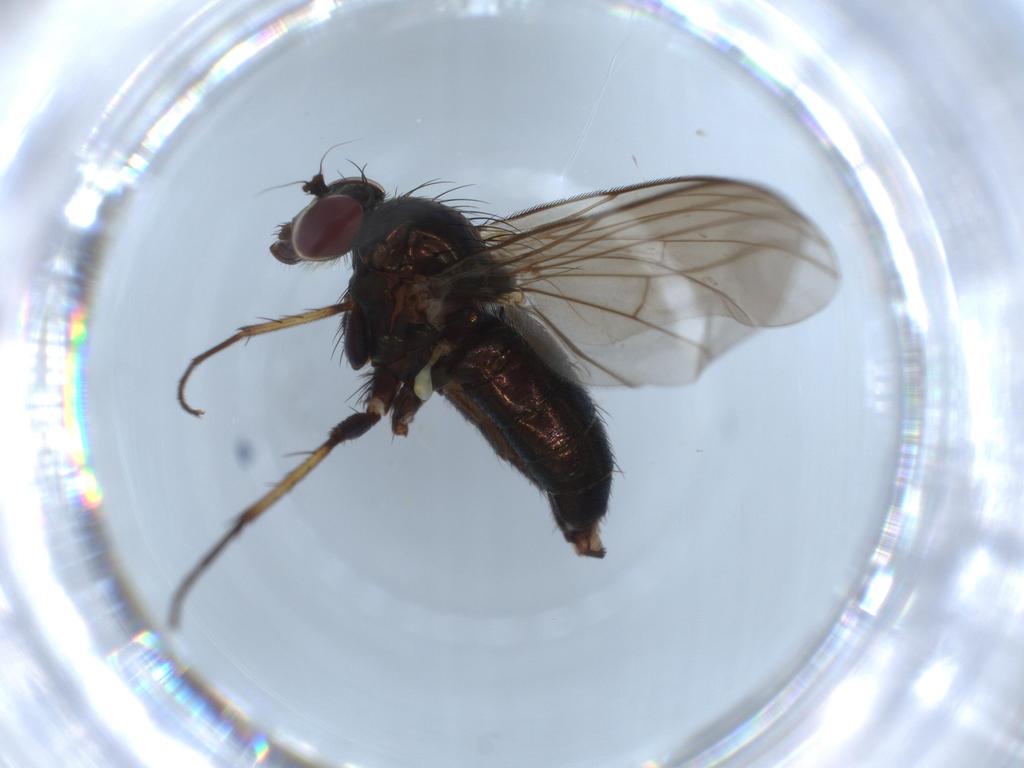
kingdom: Animalia
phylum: Arthropoda
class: Insecta
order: Diptera
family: Dolichopodidae
